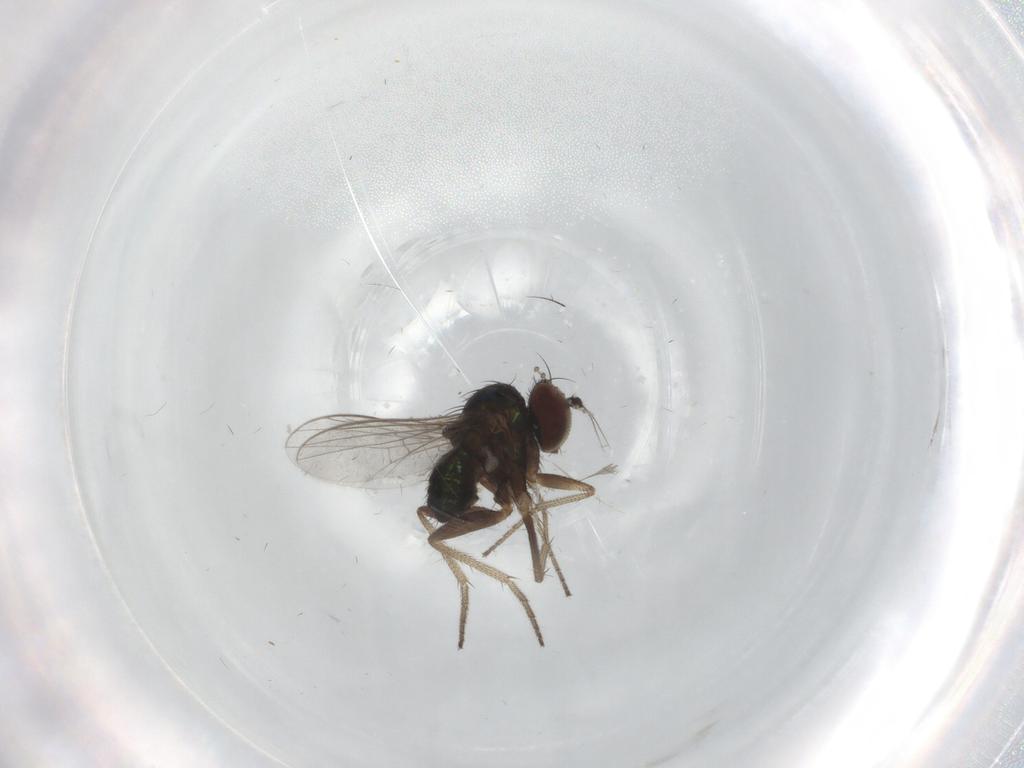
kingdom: Animalia
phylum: Arthropoda
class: Insecta
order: Diptera
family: Dolichopodidae
